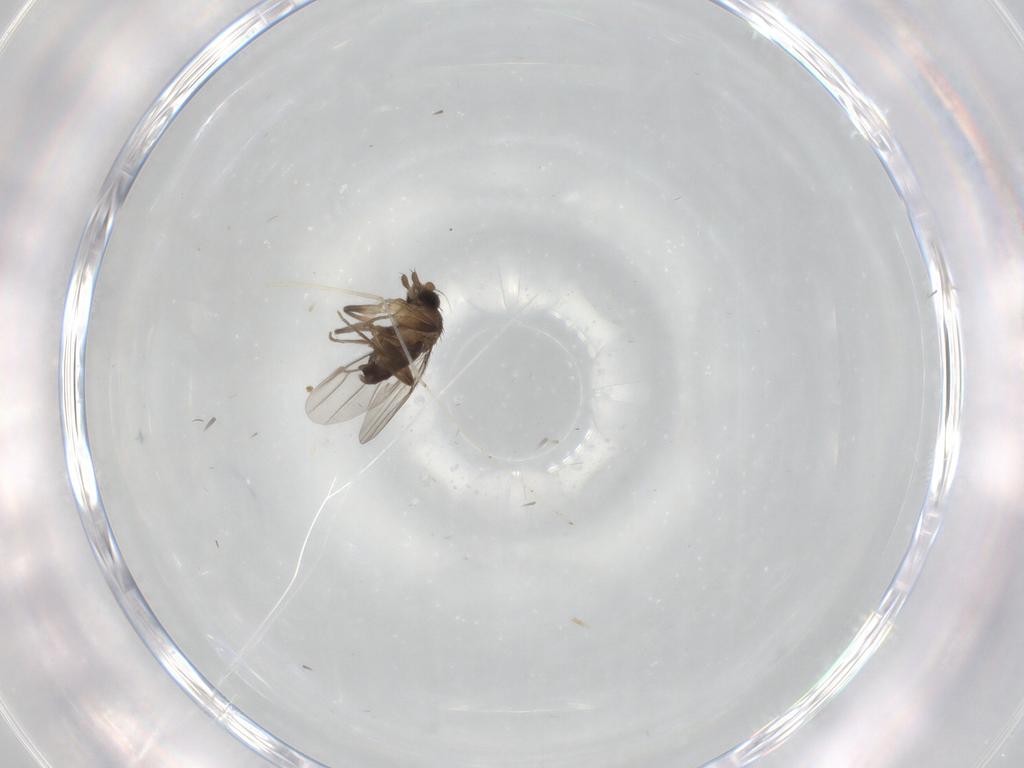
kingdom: Animalia
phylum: Arthropoda
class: Insecta
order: Diptera
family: Phoridae
